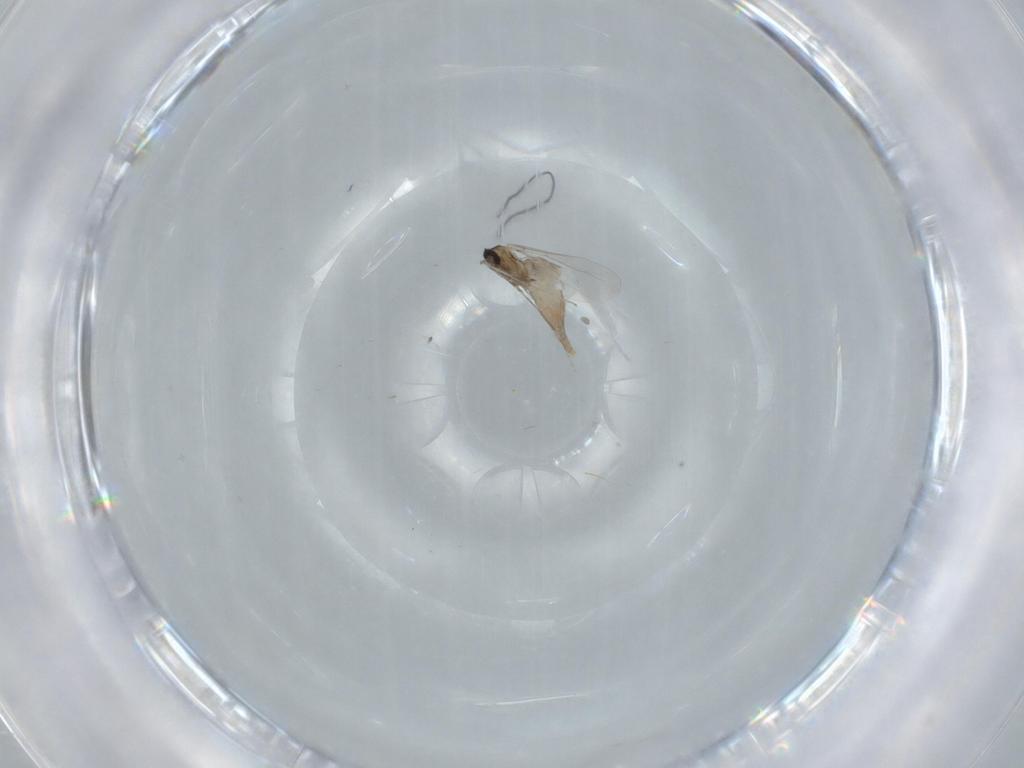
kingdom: Animalia
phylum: Arthropoda
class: Insecta
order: Diptera
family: Cecidomyiidae
